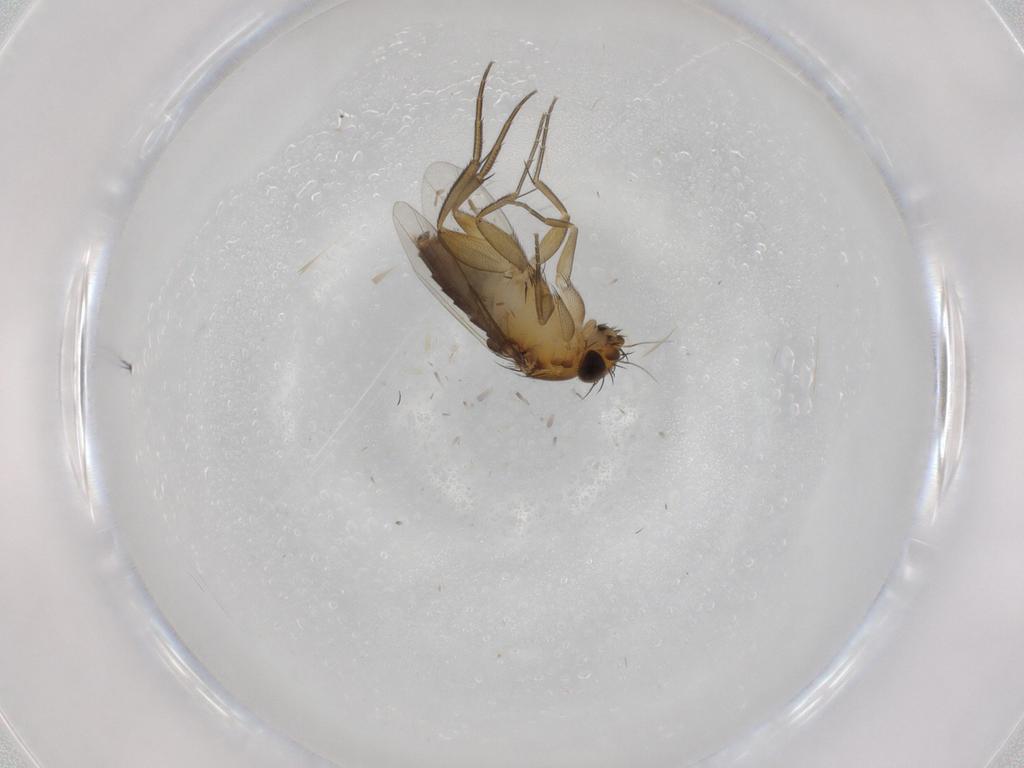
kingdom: Animalia
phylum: Arthropoda
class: Insecta
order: Diptera
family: Phoridae
